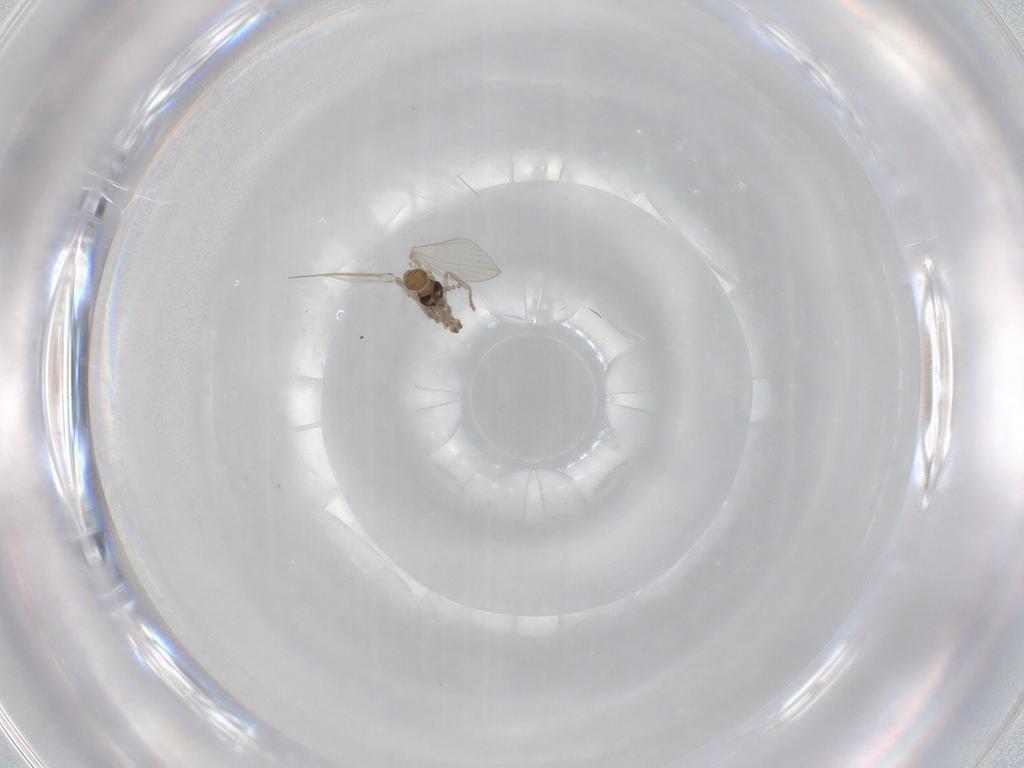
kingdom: Animalia
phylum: Arthropoda
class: Insecta
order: Diptera
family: Psychodidae
